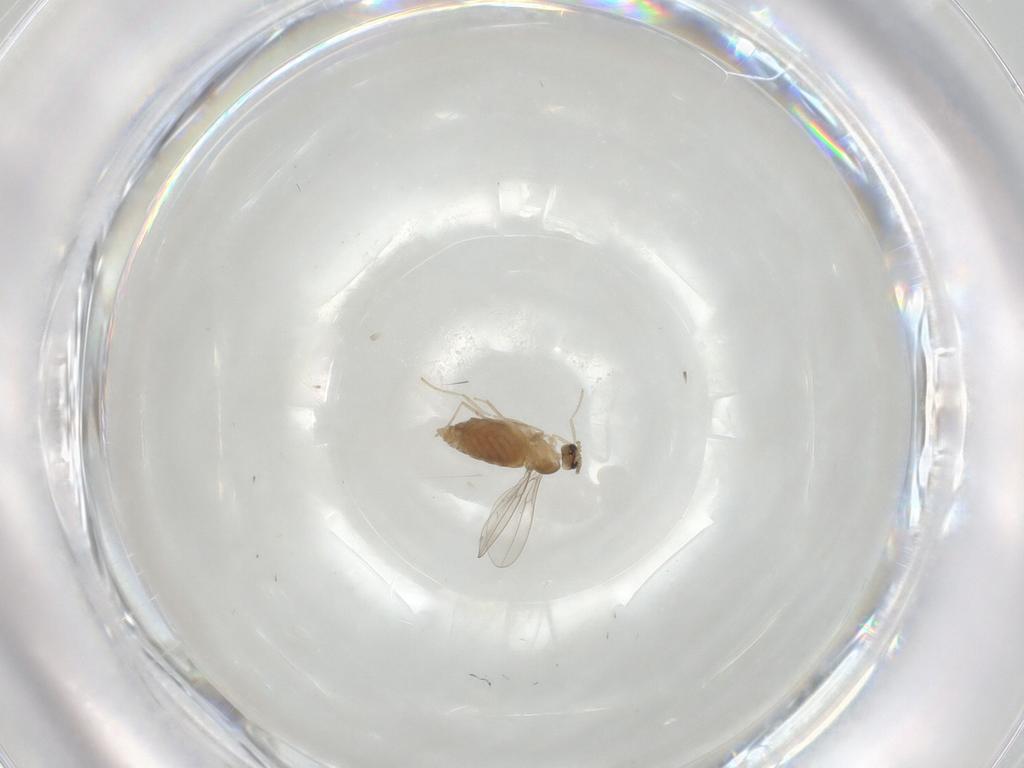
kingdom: Animalia
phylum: Arthropoda
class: Insecta
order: Diptera
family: Cecidomyiidae
